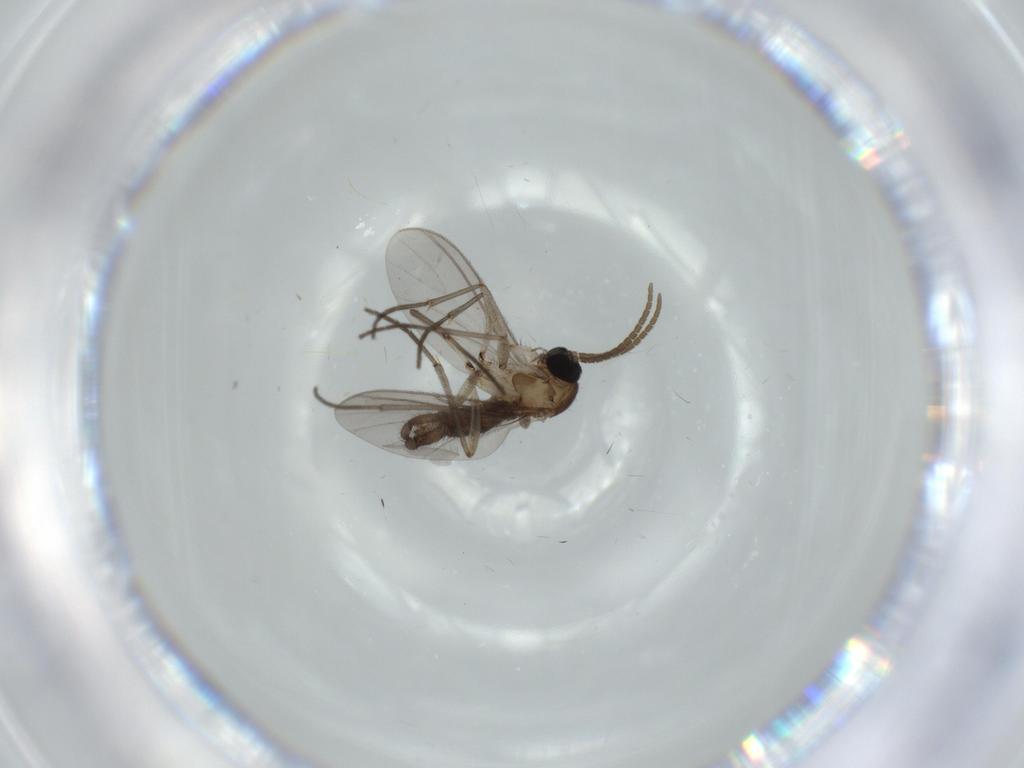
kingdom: Animalia
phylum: Arthropoda
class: Insecta
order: Diptera
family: Sciaridae
